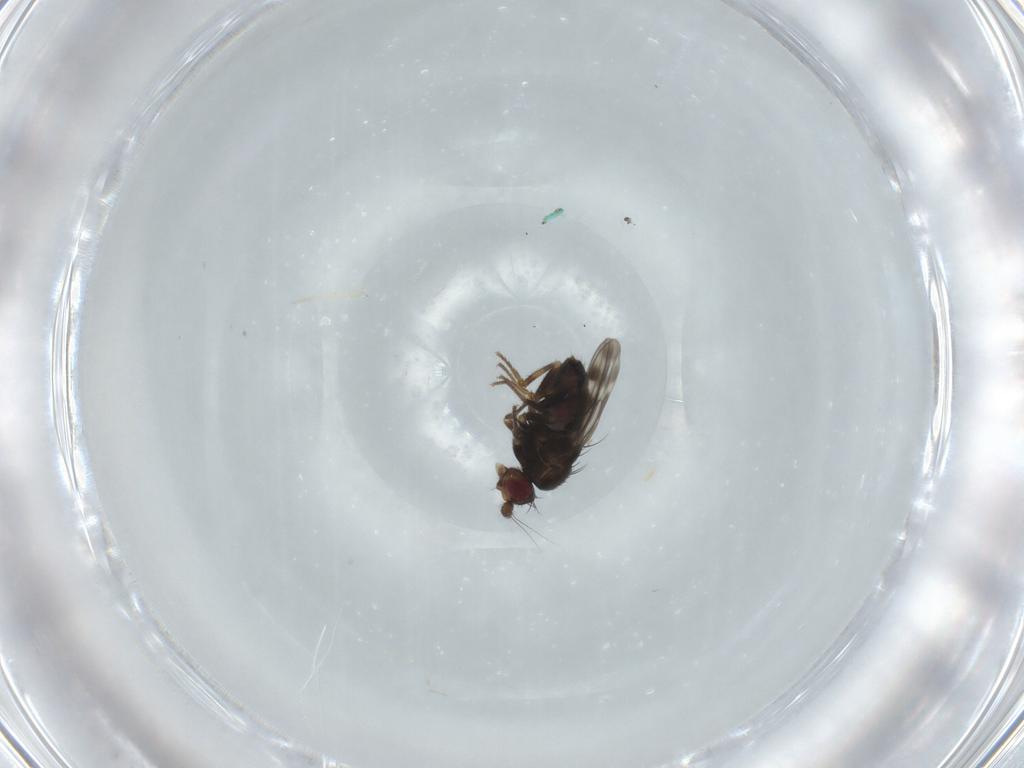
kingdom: Animalia
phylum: Arthropoda
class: Insecta
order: Diptera
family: Sphaeroceridae
